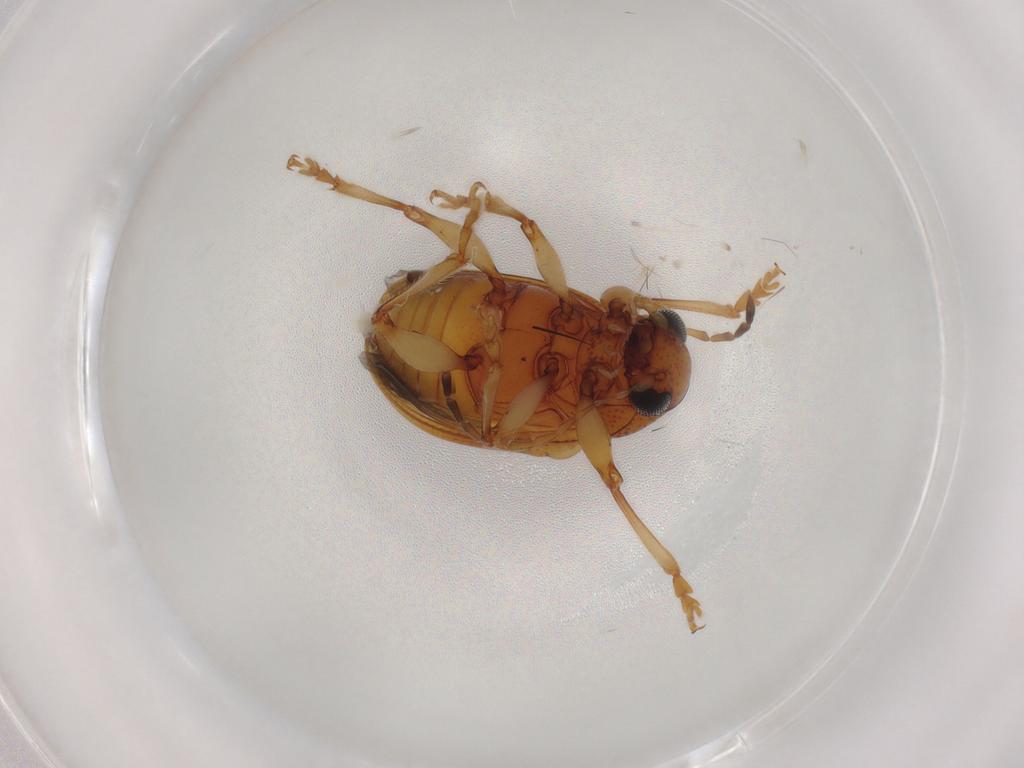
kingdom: Animalia
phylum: Arthropoda
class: Insecta
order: Coleoptera
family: Chrysomelidae
